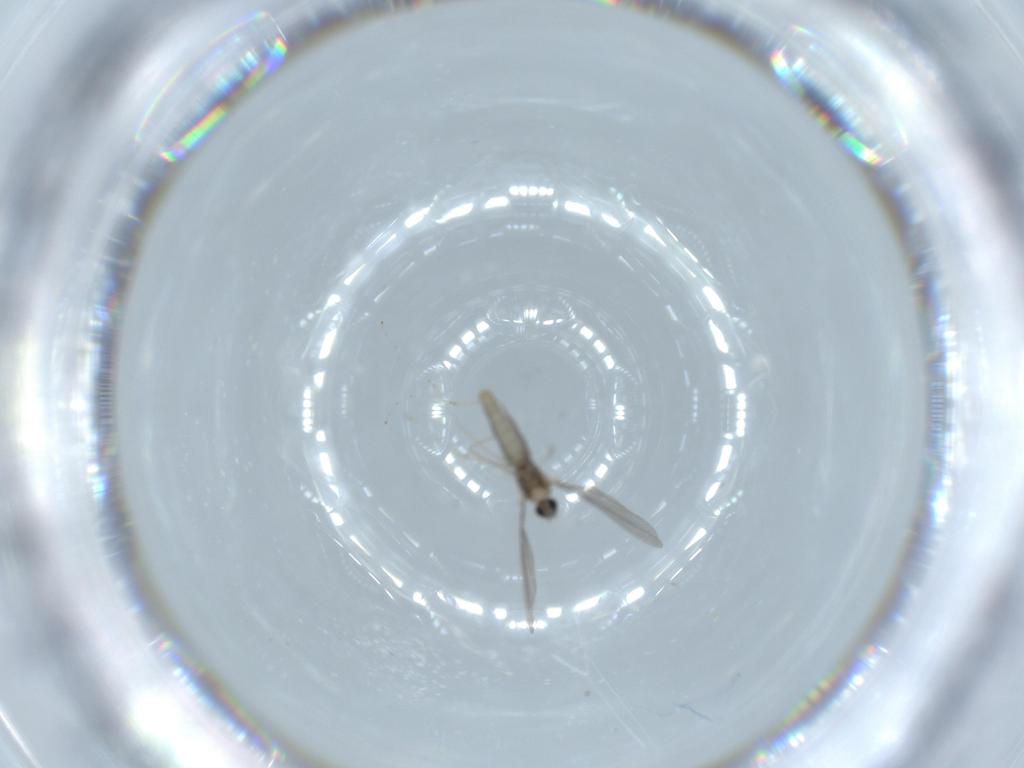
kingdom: Animalia
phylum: Arthropoda
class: Insecta
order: Diptera
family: Cecidomyiidae
